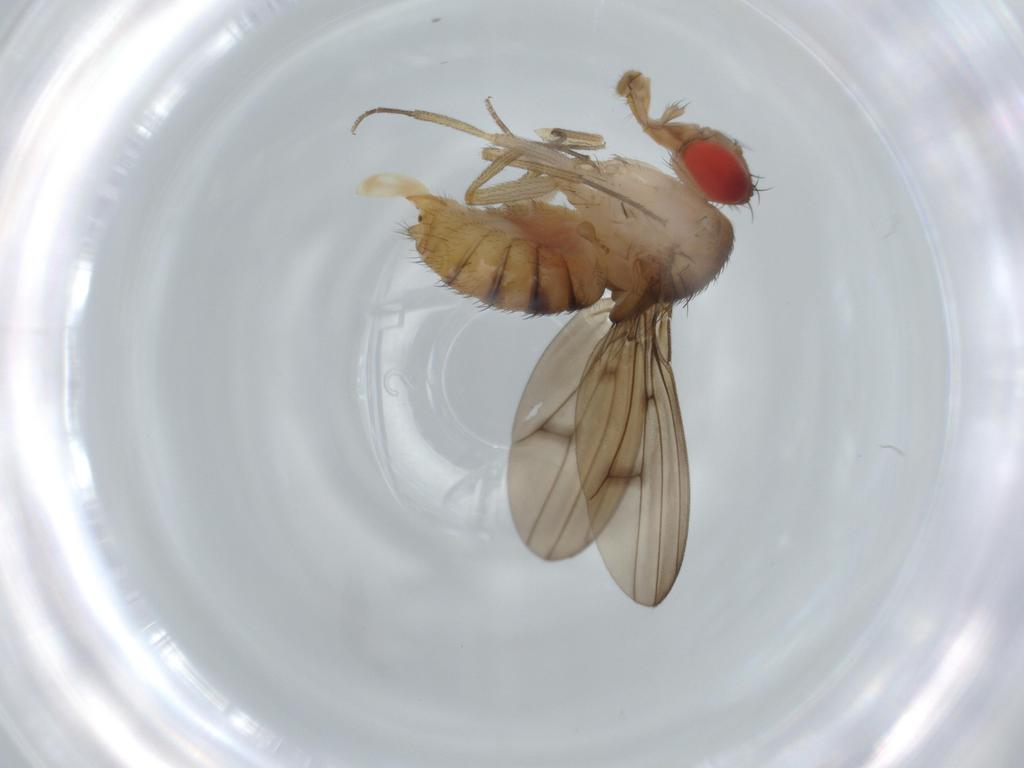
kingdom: Animalia
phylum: Arthropoda
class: Insecta
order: Diptera
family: Drosophilidae
